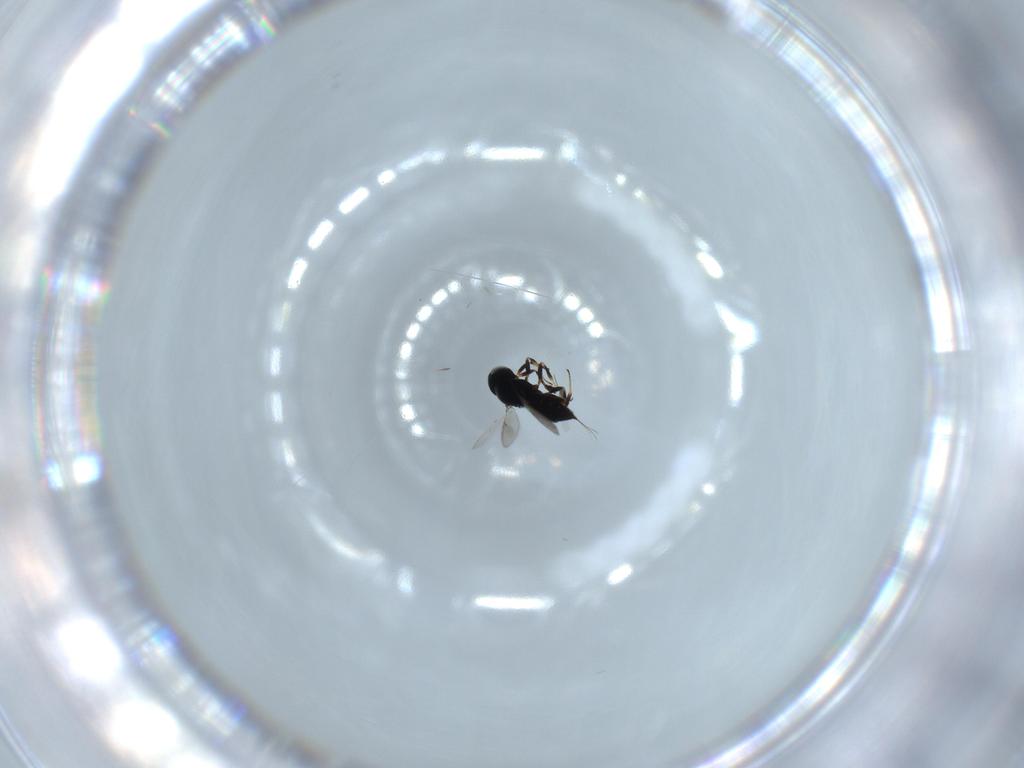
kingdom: Animalia
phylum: Arthropoda
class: Insecta
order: Hymenoptera
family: Scelionidae
